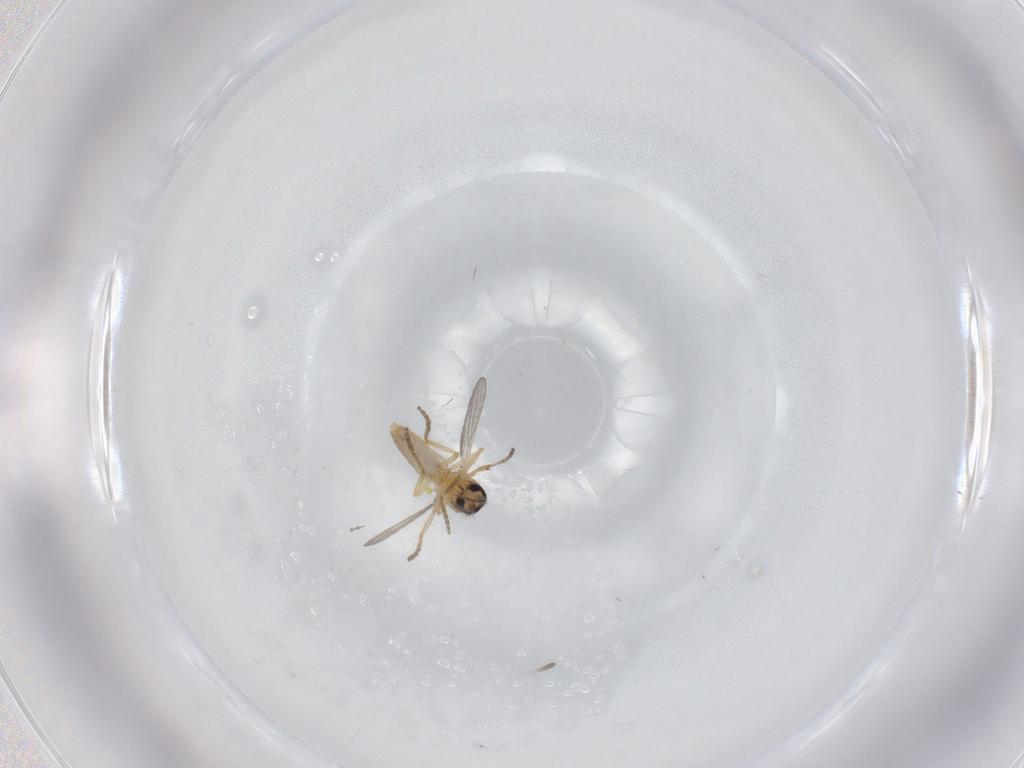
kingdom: Animalia
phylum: Arthropoda
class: Insecta
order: Diptera
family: Ceratopogonidae
